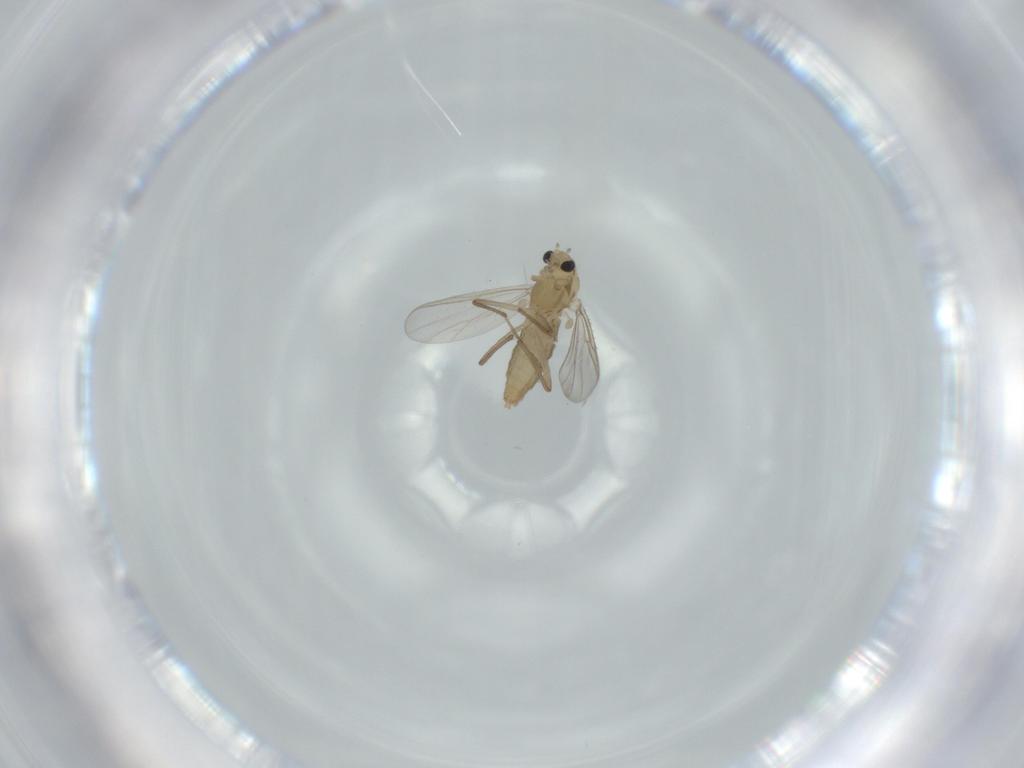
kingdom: Animalia
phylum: Arthropoda
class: Insecta
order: Diptera
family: Chironomidae
